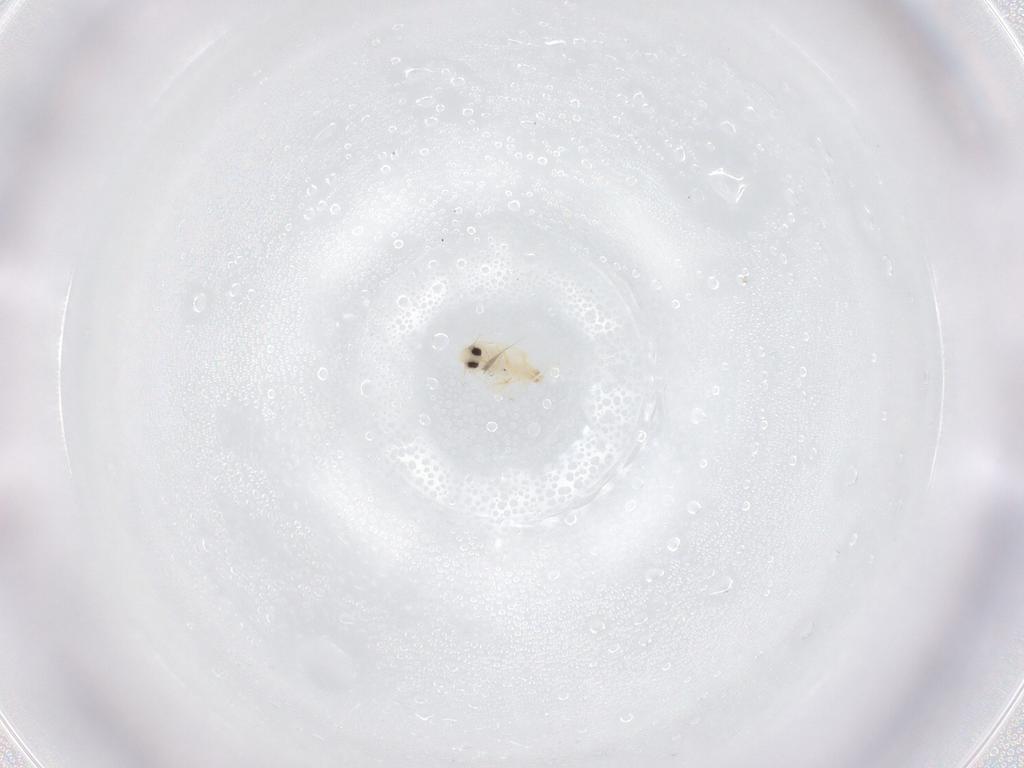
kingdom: Animalia
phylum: Arthropoda
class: Insecta
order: Hemiptera
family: Aleyrodidae
